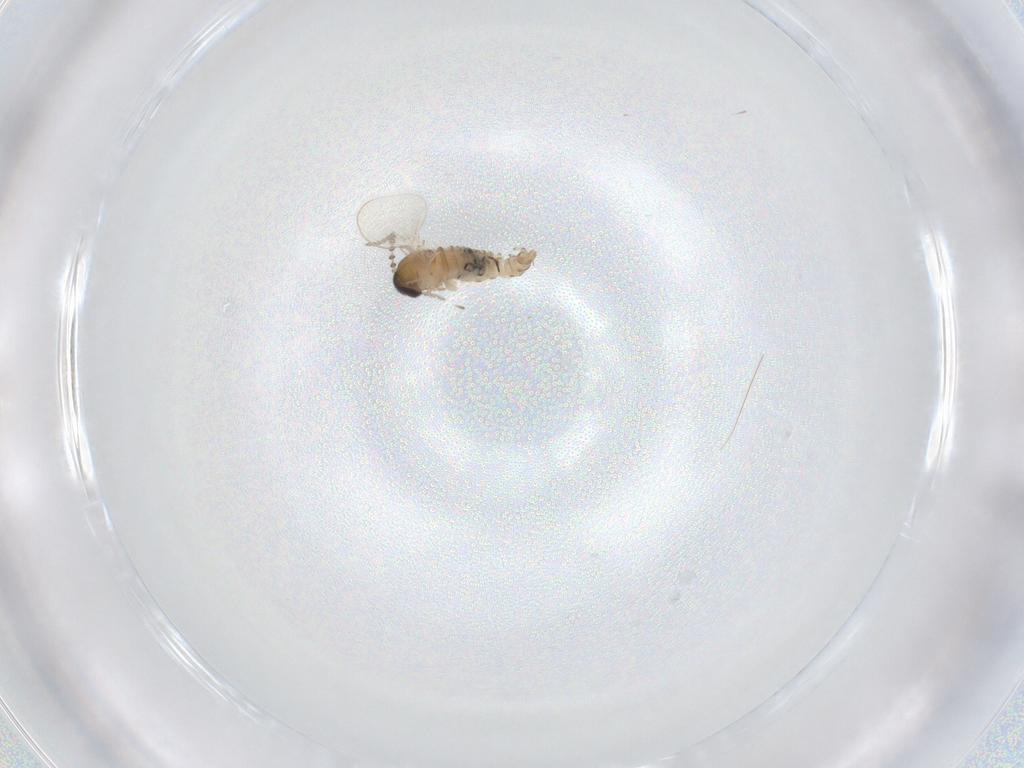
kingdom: Animalia
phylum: Arthropoda
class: Insecta
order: Diptera
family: Psychodidae
